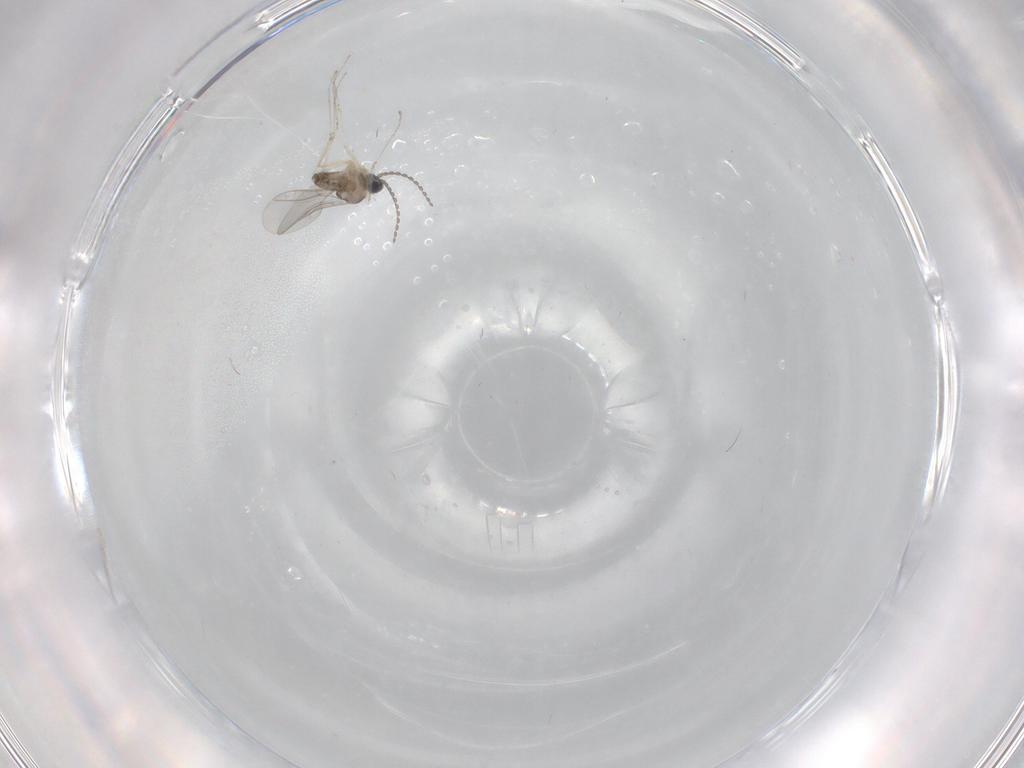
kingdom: Animalia
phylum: Arthropoda
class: Insecta
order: Diptera
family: Cecidomyiidae
